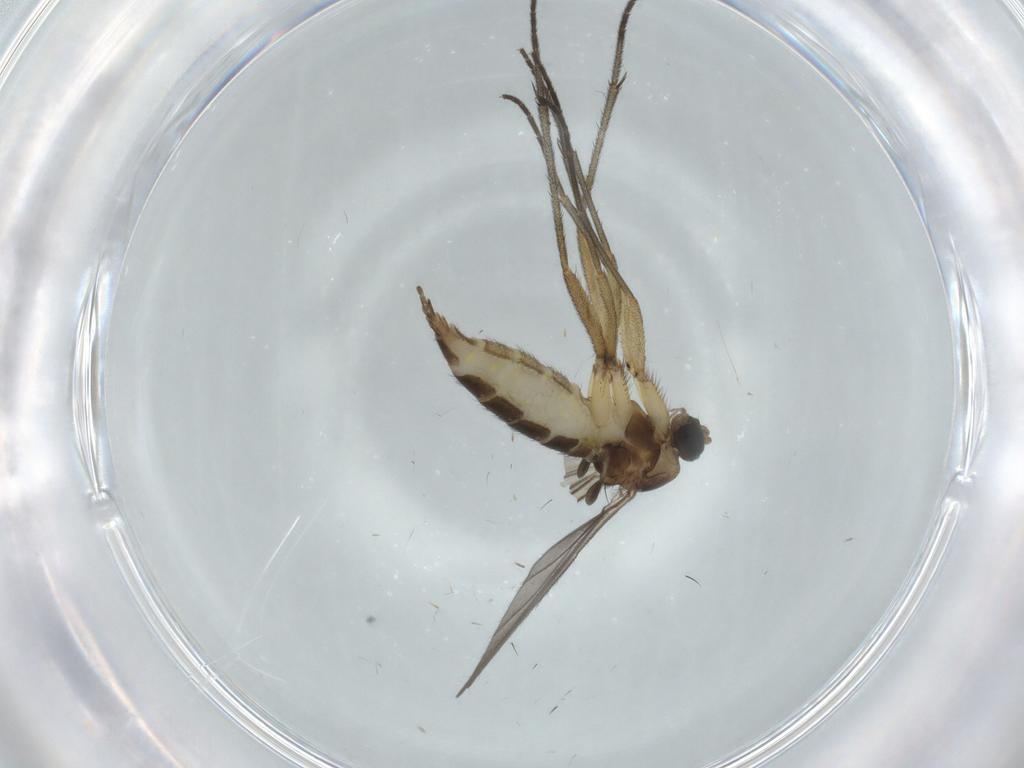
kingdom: Animalia
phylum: Arthropoda
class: Insecta
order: Diptera
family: Sciaridae
